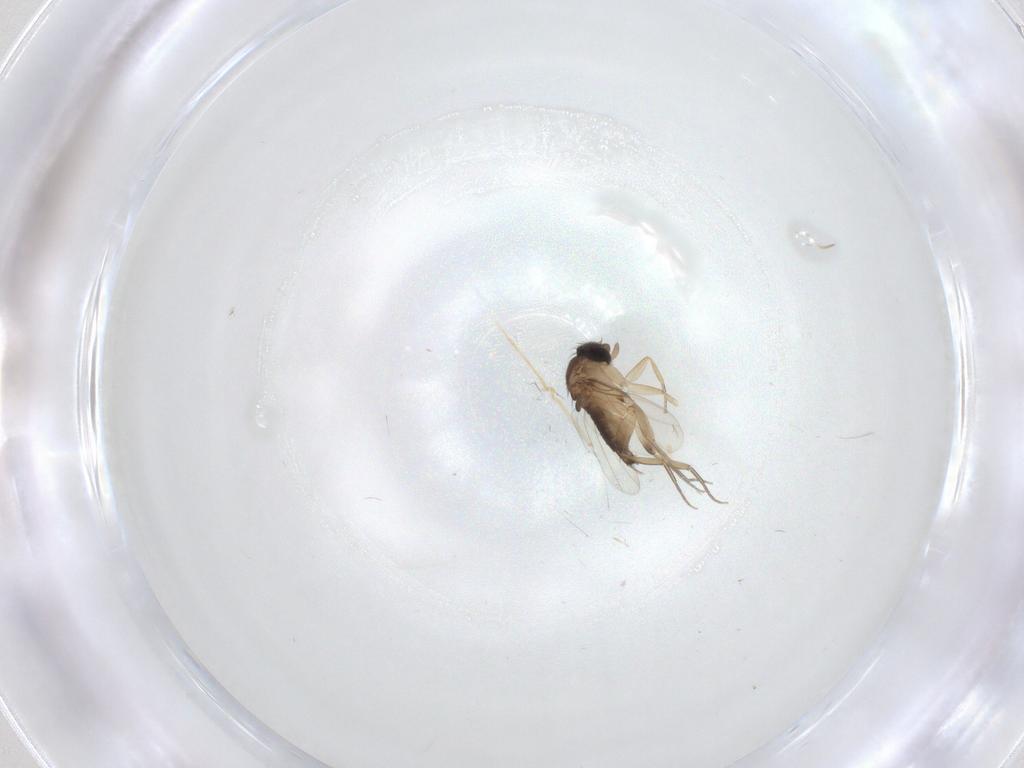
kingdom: Animalia
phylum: Arthropoda
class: Insecta
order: Diptera
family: Phoridae
